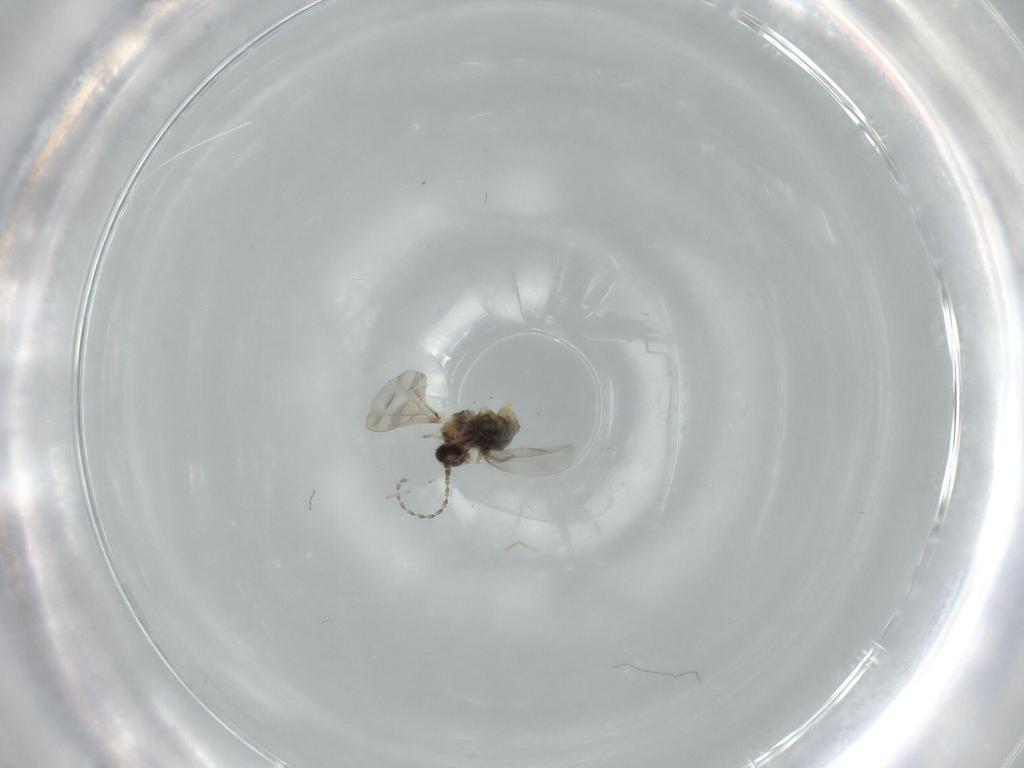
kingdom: Animalia
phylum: Arthropoda
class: Insecta
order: Diptera
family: Cecidomyiidae
